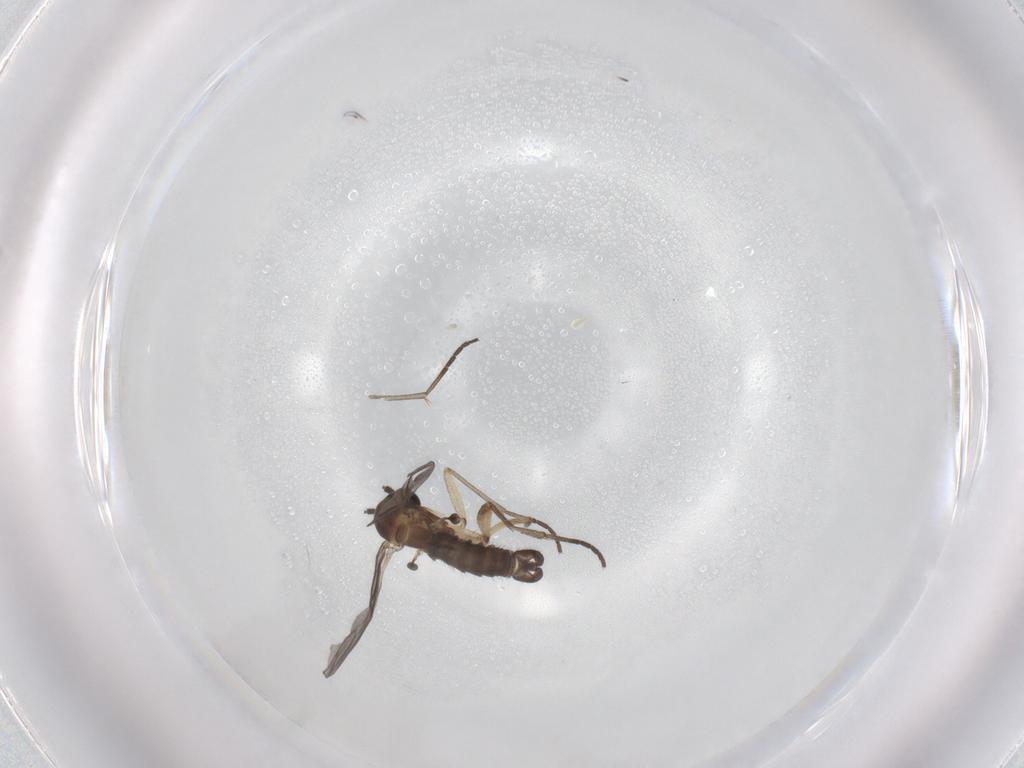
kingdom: Animalia
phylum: Arthropoda
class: Insecta
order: Diptera
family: Sciaridae
